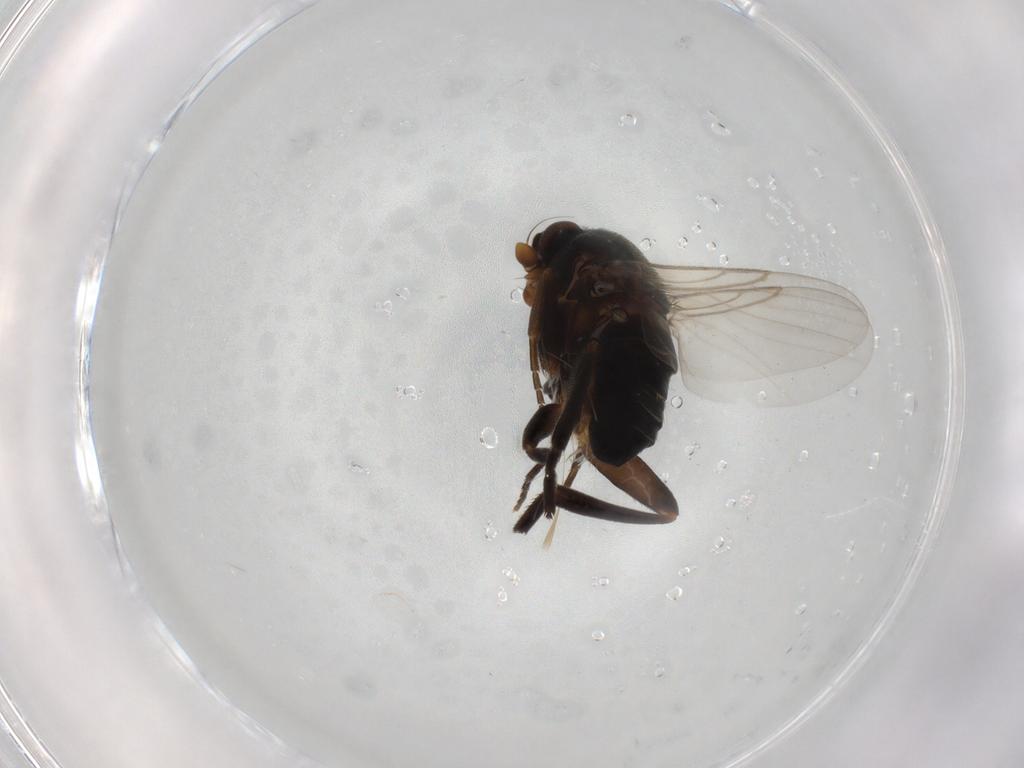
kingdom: Animalia
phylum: Arthropoda
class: Insecta
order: Diptera
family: Phoridae
